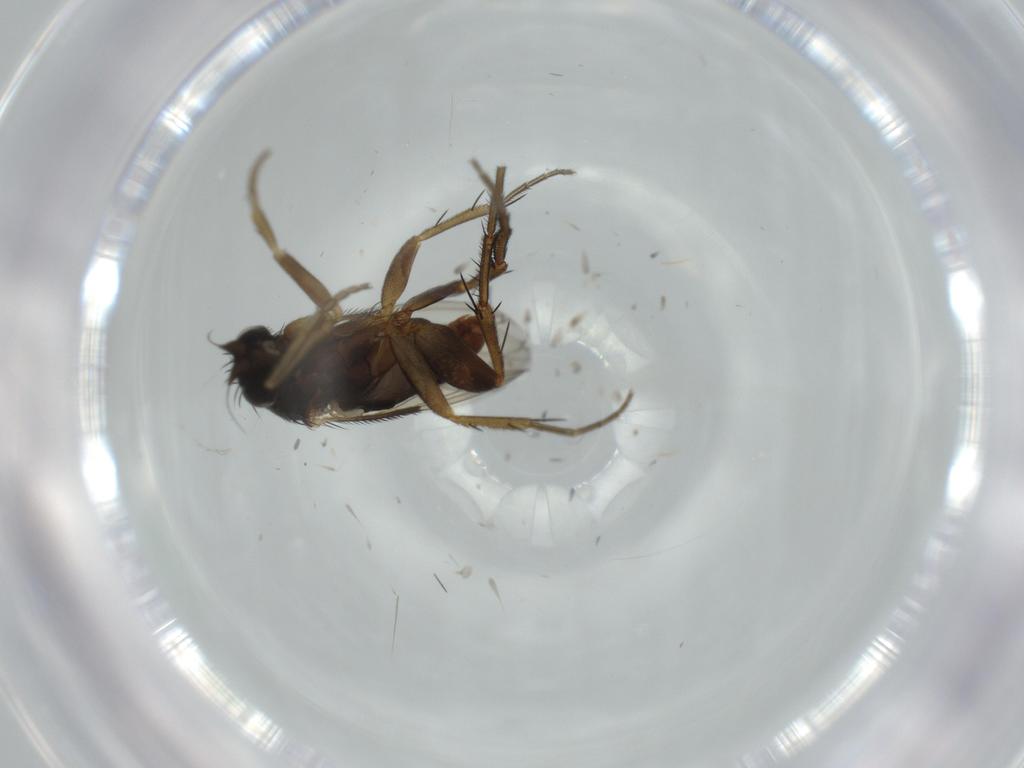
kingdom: Animalia
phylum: Arthropoda
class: Insecta
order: Diptera
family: Phoridae
